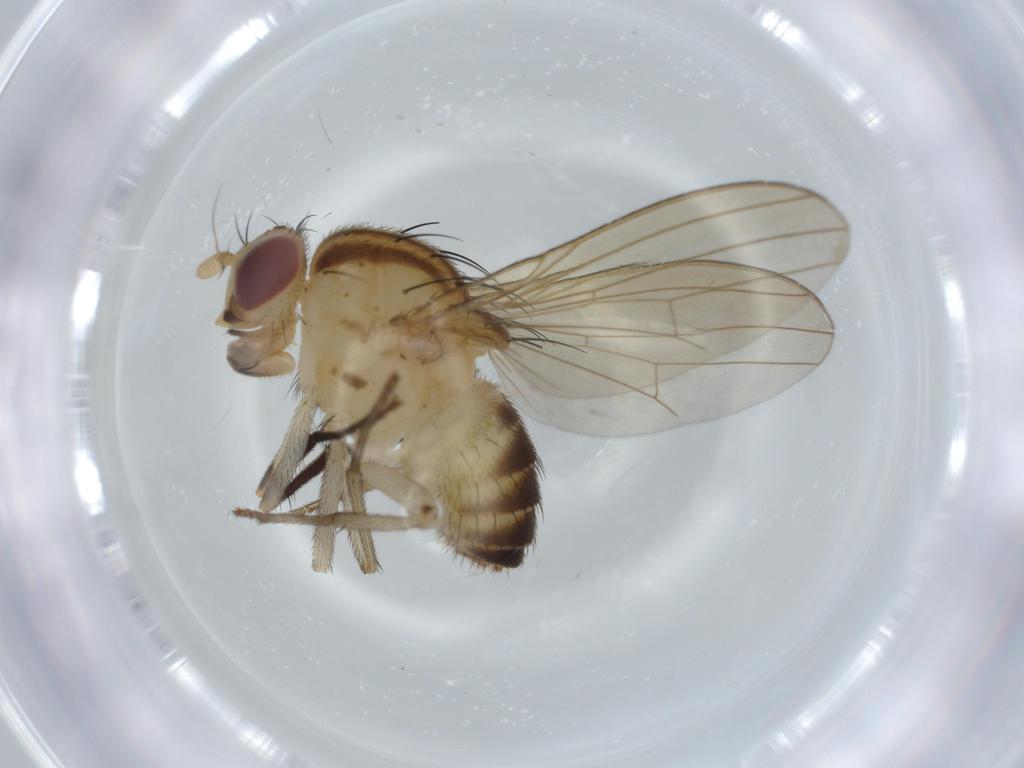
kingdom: Animalia
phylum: Arthropoda
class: Insecta
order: Diptera
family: Lauxaniidae
